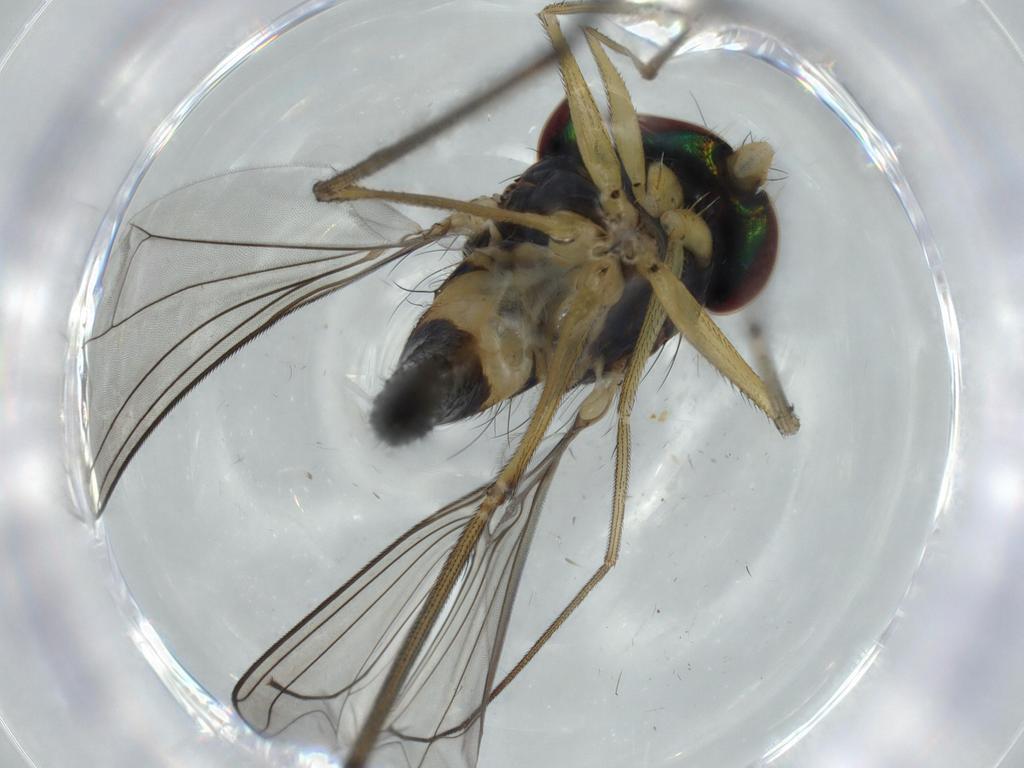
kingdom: Animalia
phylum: Arthropoda
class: Insecta
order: Diptera
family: Dolichopodidae
